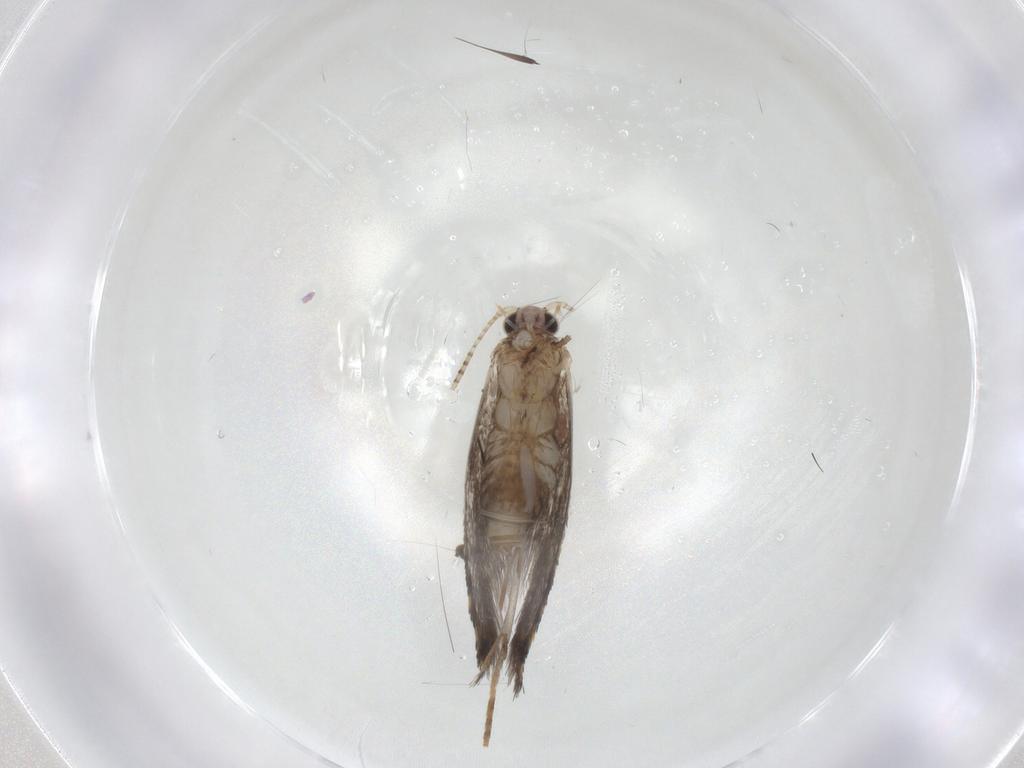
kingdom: Animalia
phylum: Arthropoda
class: Insecta
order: Lepidoptera
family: Tineidae
